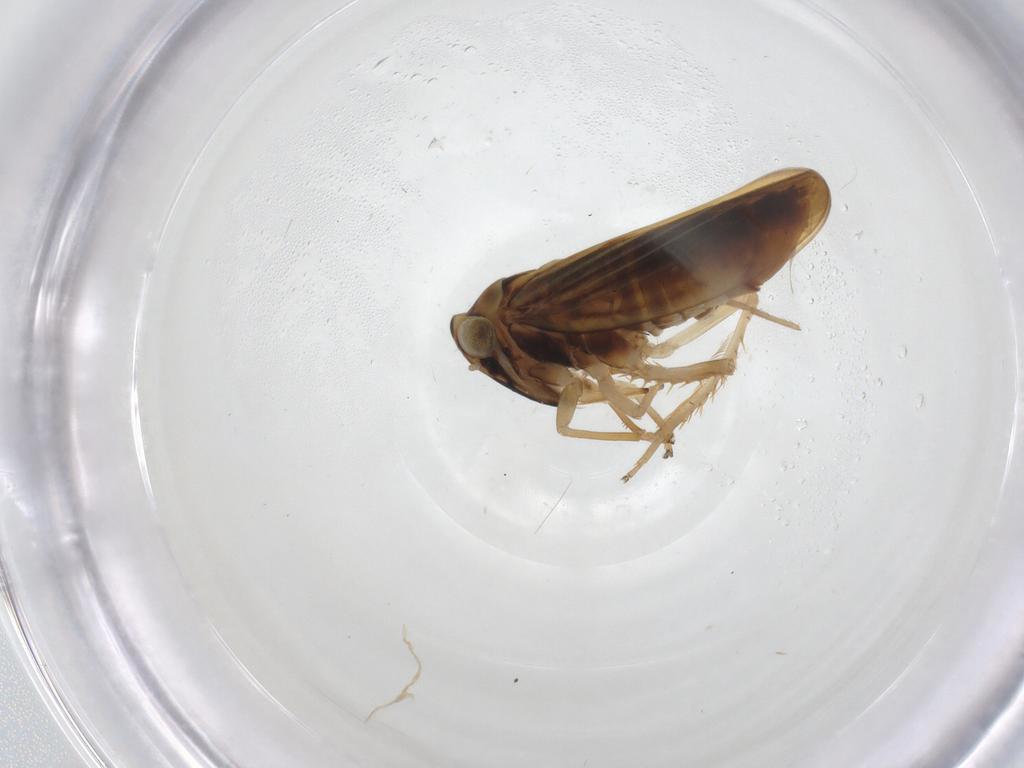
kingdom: Animalia
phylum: Arthropoda
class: Insecta
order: Hemiptera
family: Cicadellidae
